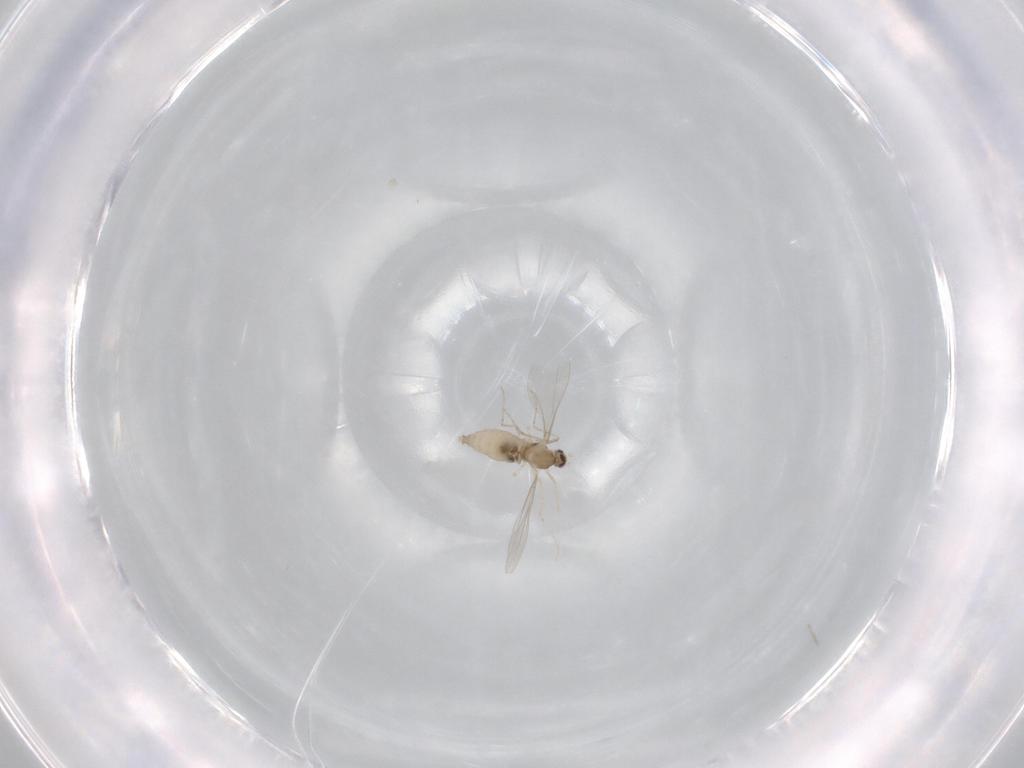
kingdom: Animalia
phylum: Arthropoda
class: Insecta
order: Diptera
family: Cecidomyiidae
